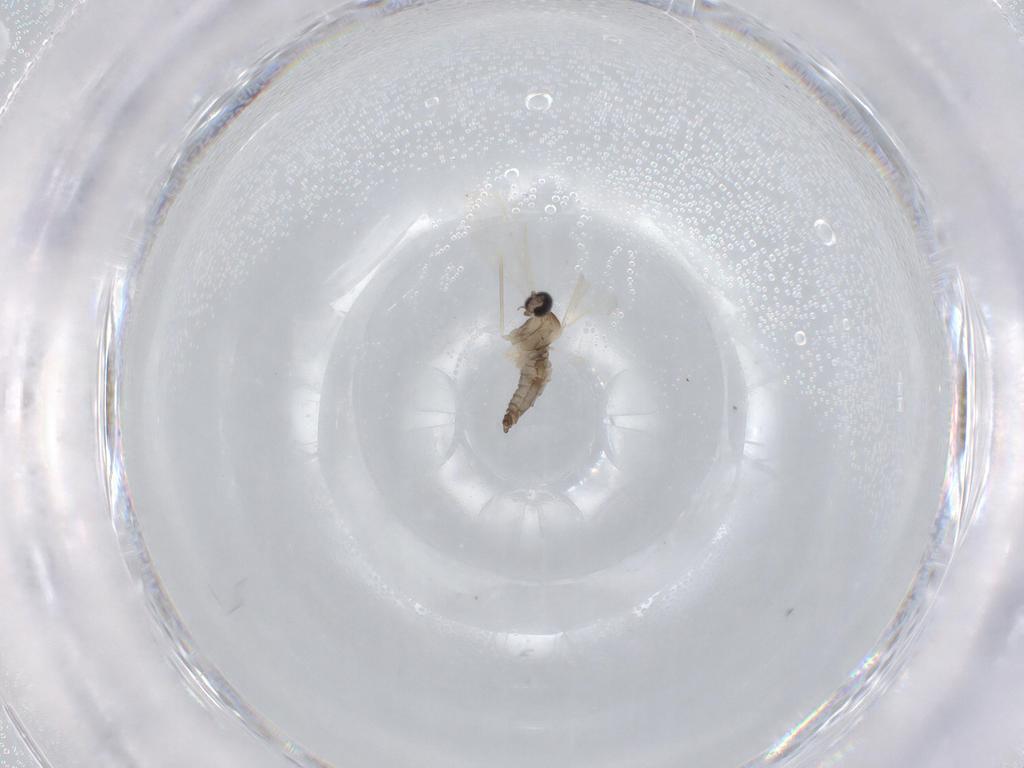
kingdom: Animalia
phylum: Arthropoda
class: Insecta
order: Diptera
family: Cecidomyiidae
